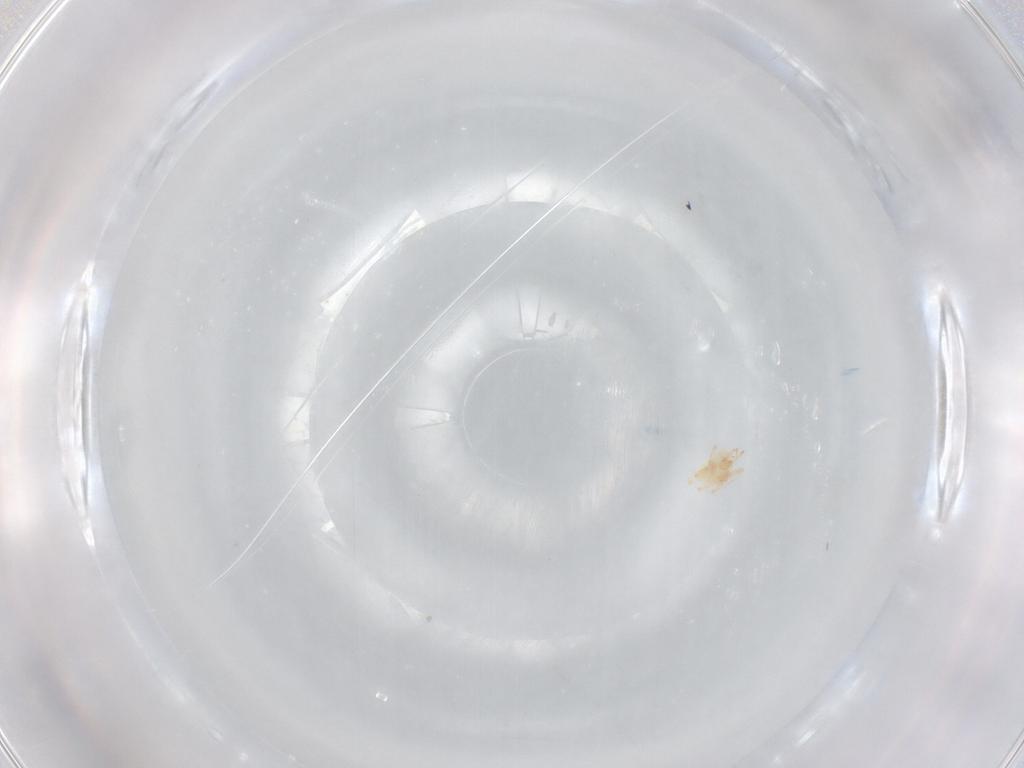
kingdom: Animalia
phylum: Arthropoda
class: Arachnida
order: Trombidiformes
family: Cunaxidae
